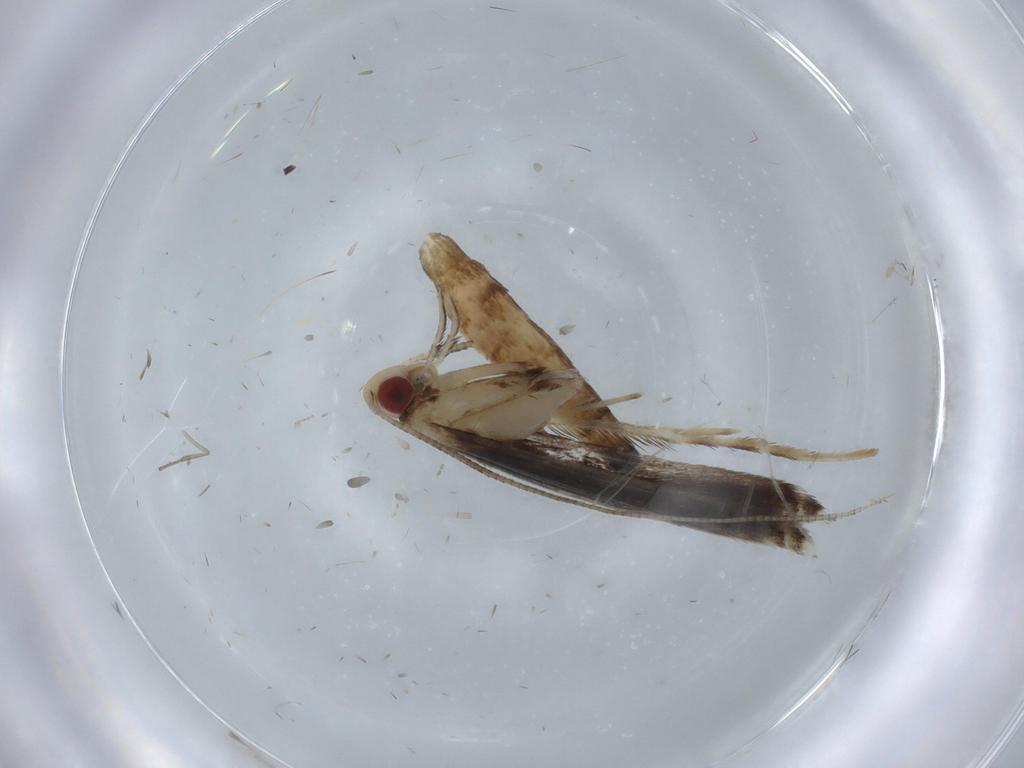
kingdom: Animalia
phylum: Arthropoda
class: Insecta
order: Lepidoptera
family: Gracillariidae
